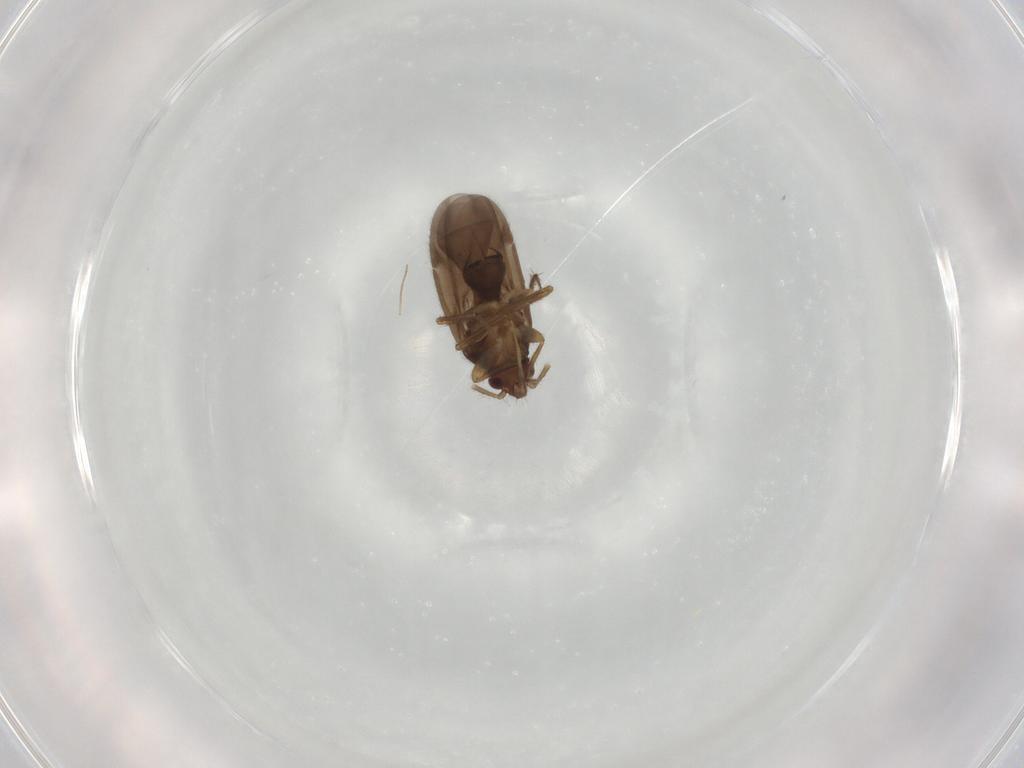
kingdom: Animalia
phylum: Arthropoda
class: Insecta
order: Hemiptera
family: Ceratocombidae
